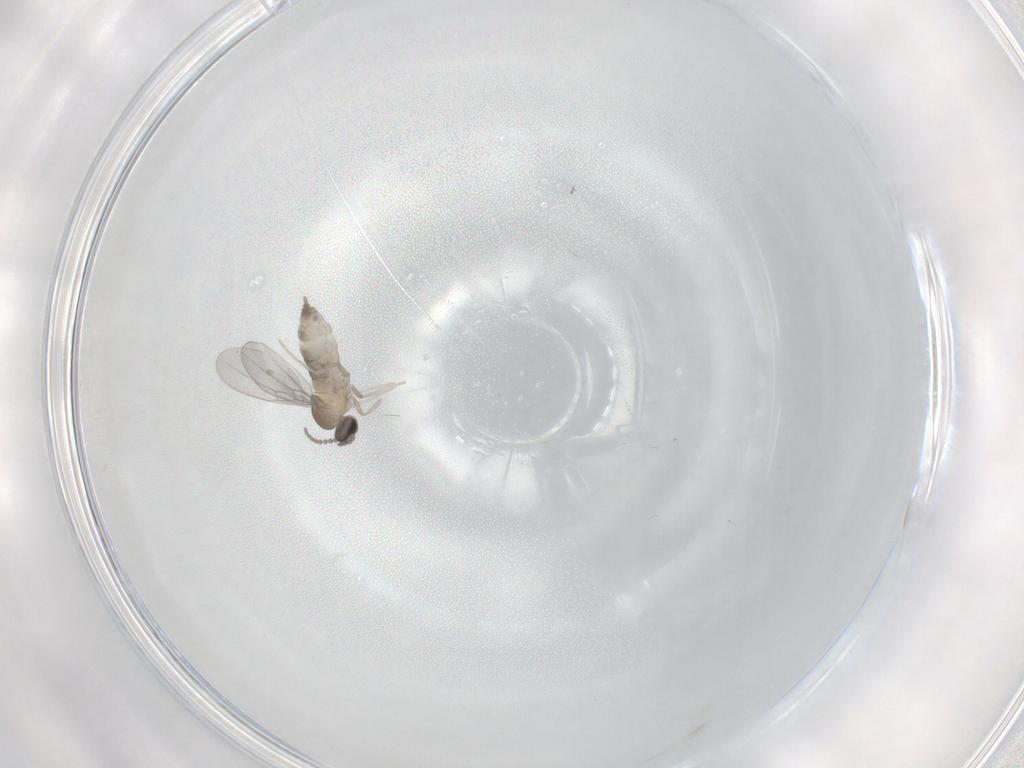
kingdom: Animalia
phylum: Arthropoda
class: Insecta
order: Diptera
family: Cecidomyiidae
